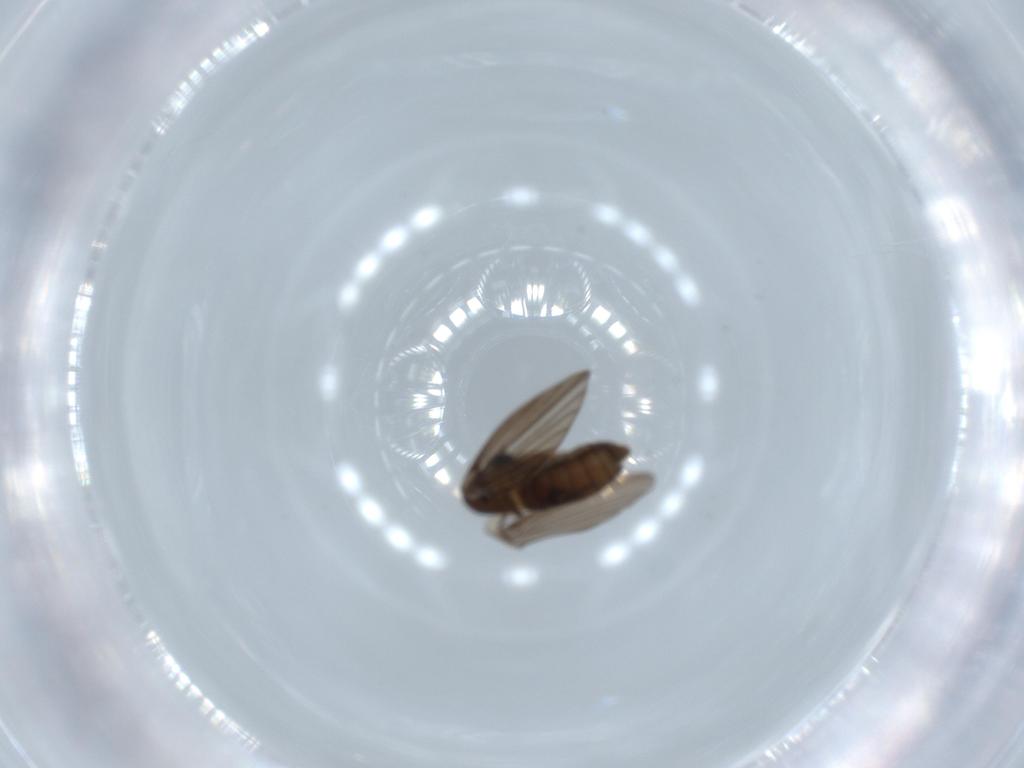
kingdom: Animalia
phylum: Arthropoda
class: Insecta
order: Diptera
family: Psychodidae
